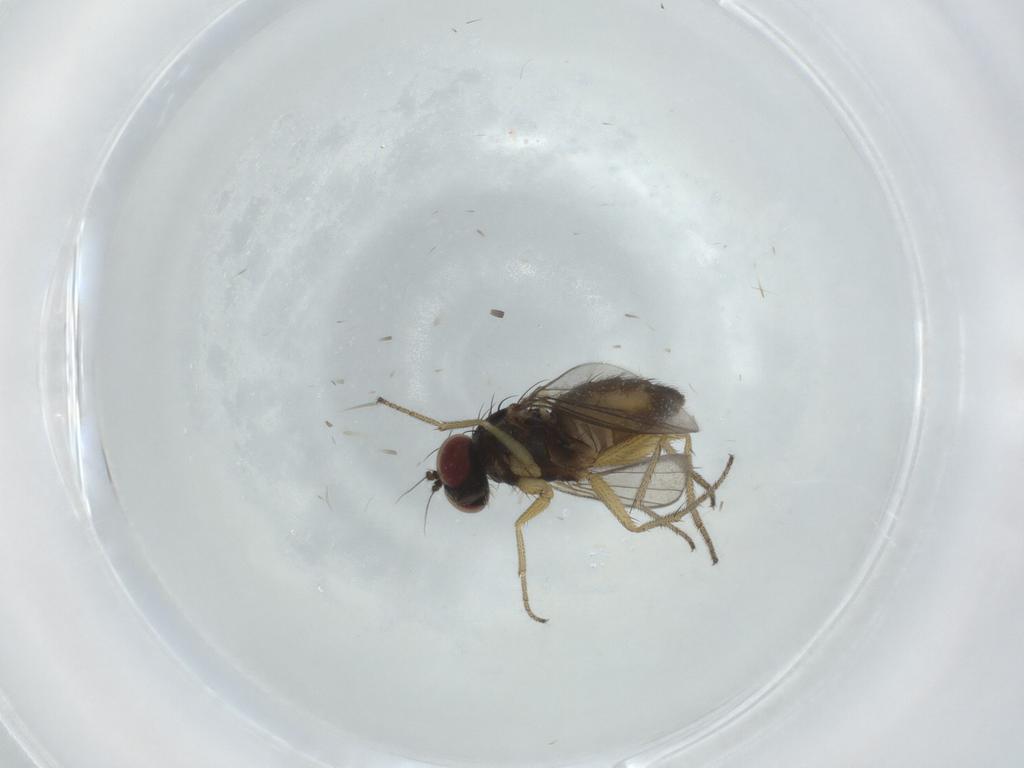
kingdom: Animalia
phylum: Arthropoda
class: Insecta
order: Diptera
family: Dolichopodidae
